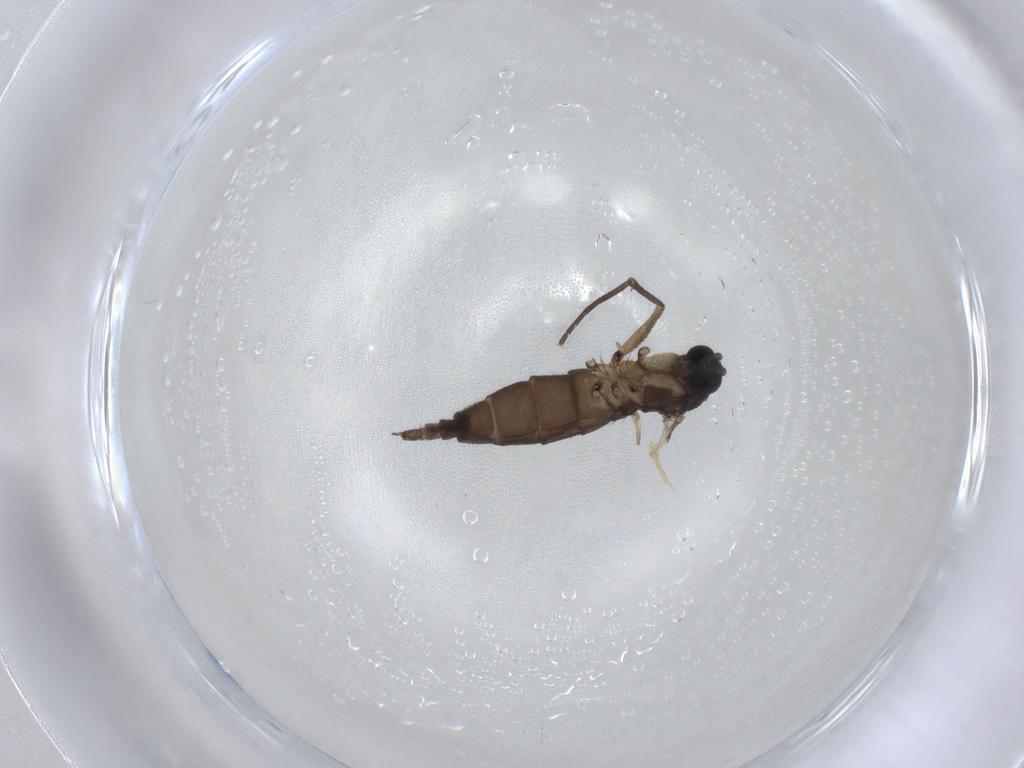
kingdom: Animalia
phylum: Arthropoda
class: Insecta
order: Diptera
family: Sciaridae
